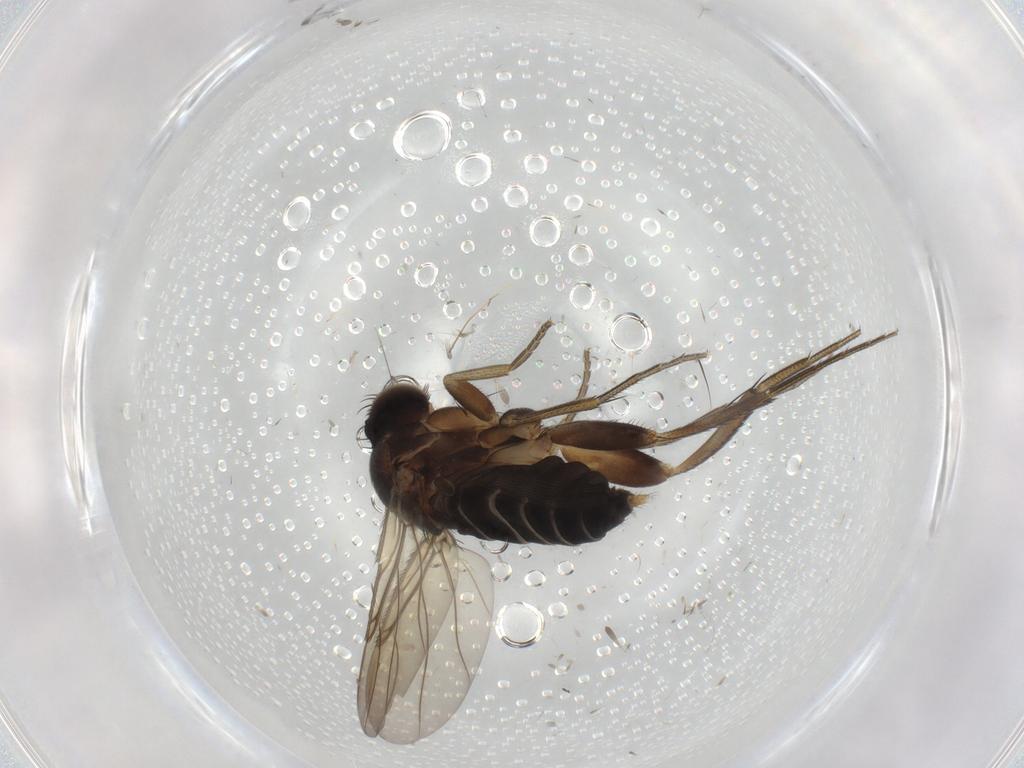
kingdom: Animalia
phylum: Arthropoda
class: Insecta
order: Diptera
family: Phoridae
